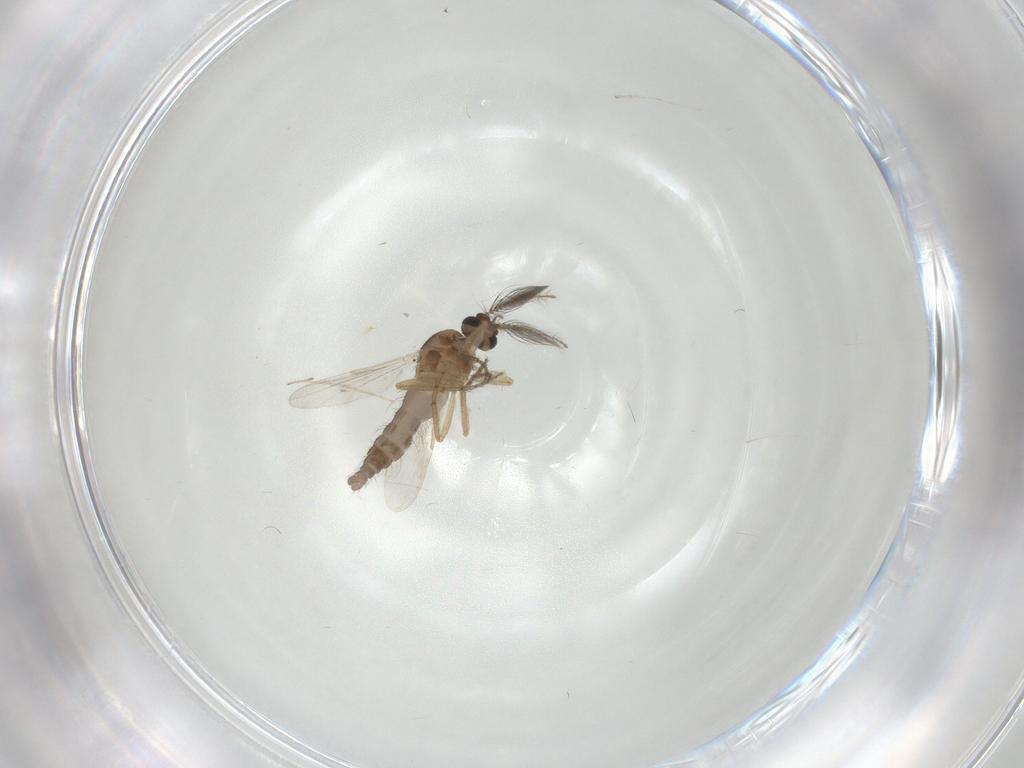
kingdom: Animalia
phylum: Arthropoda
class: Insecta
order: Diptera
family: Ceratopogonidae
